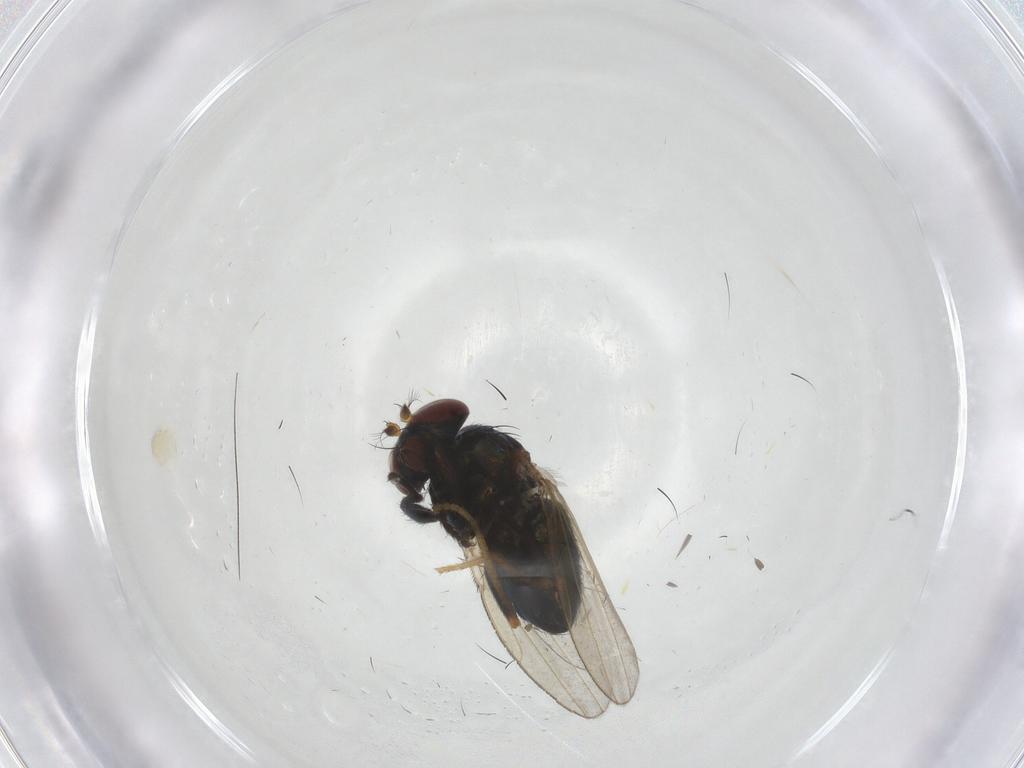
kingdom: Animalia
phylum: Arthropoda
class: Insecta
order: Diptera
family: Ephydridae
